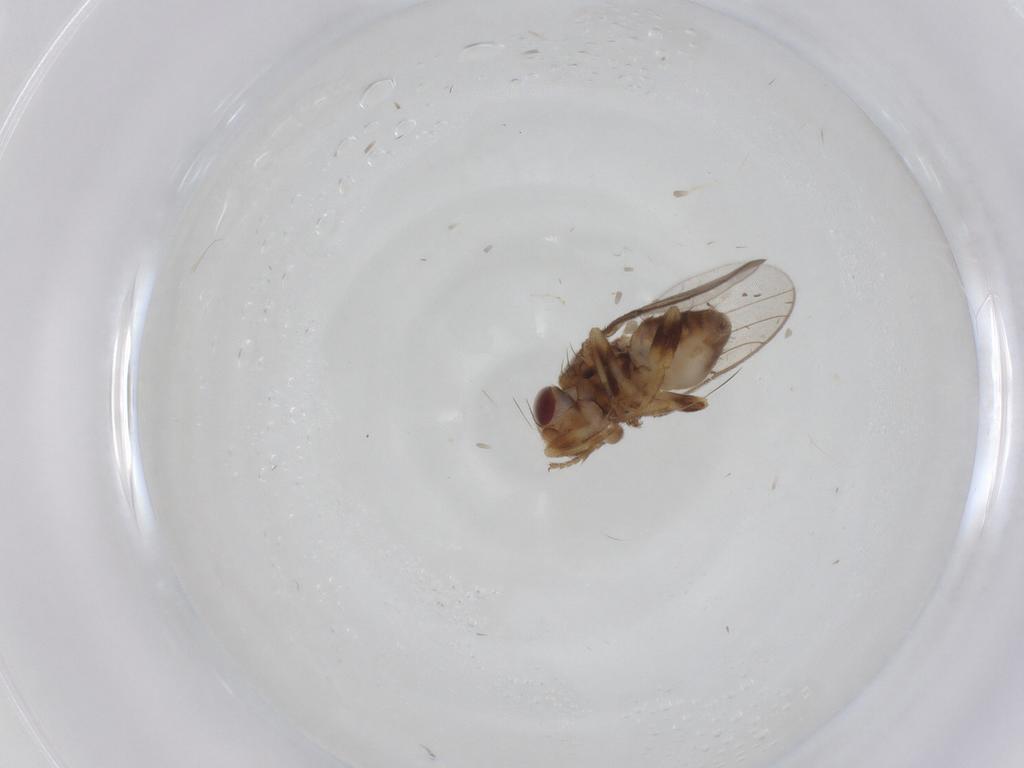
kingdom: Animalia
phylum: Arthropoda
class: Insecta
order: Diptera
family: Chloropidae
